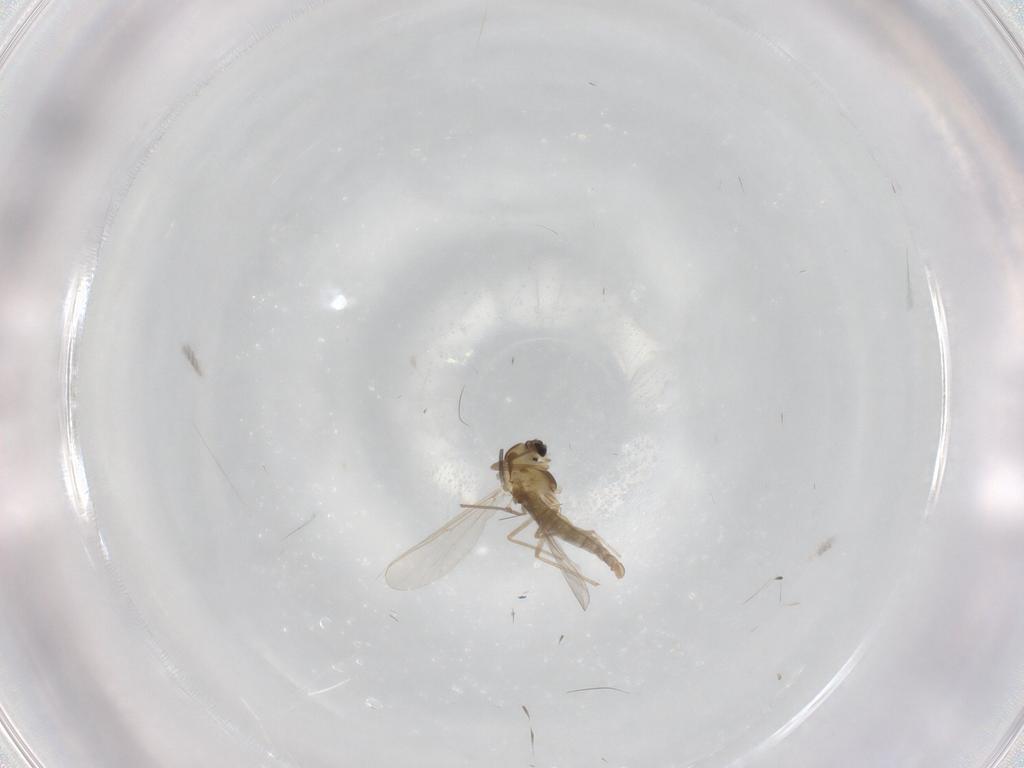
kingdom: Animalia
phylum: Arthropoda
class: Insecta
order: Diptera
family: Chironomidae
